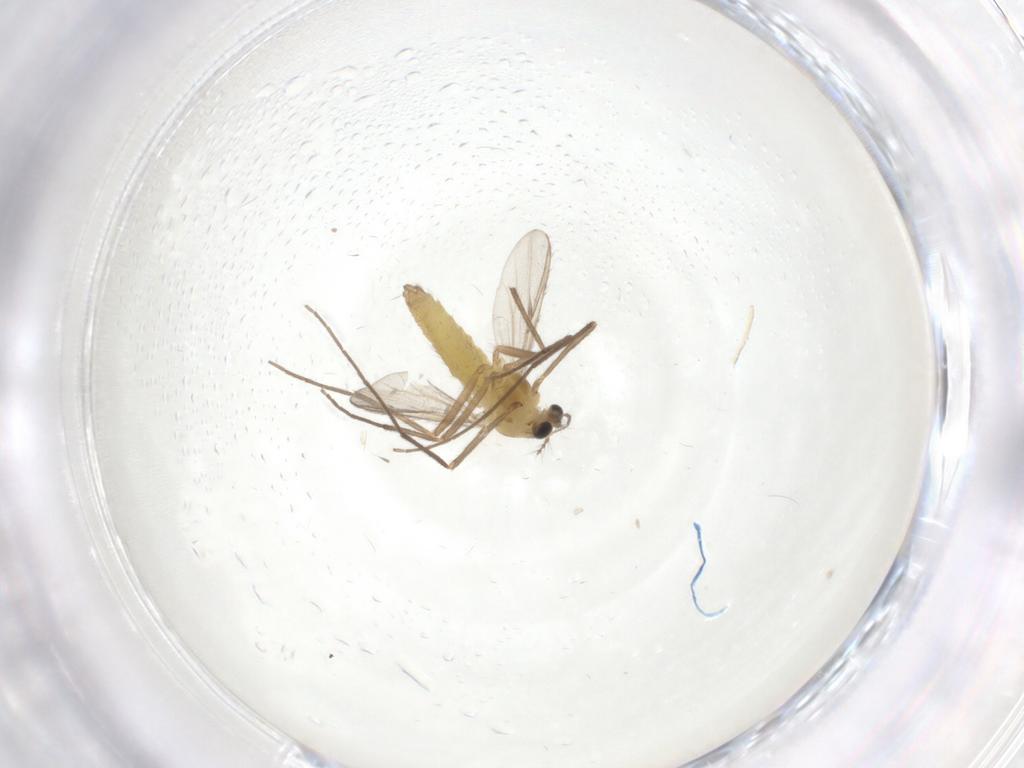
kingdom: Animalia
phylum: Arthropoda
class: Insecta
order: Diptera
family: Chironomidae
